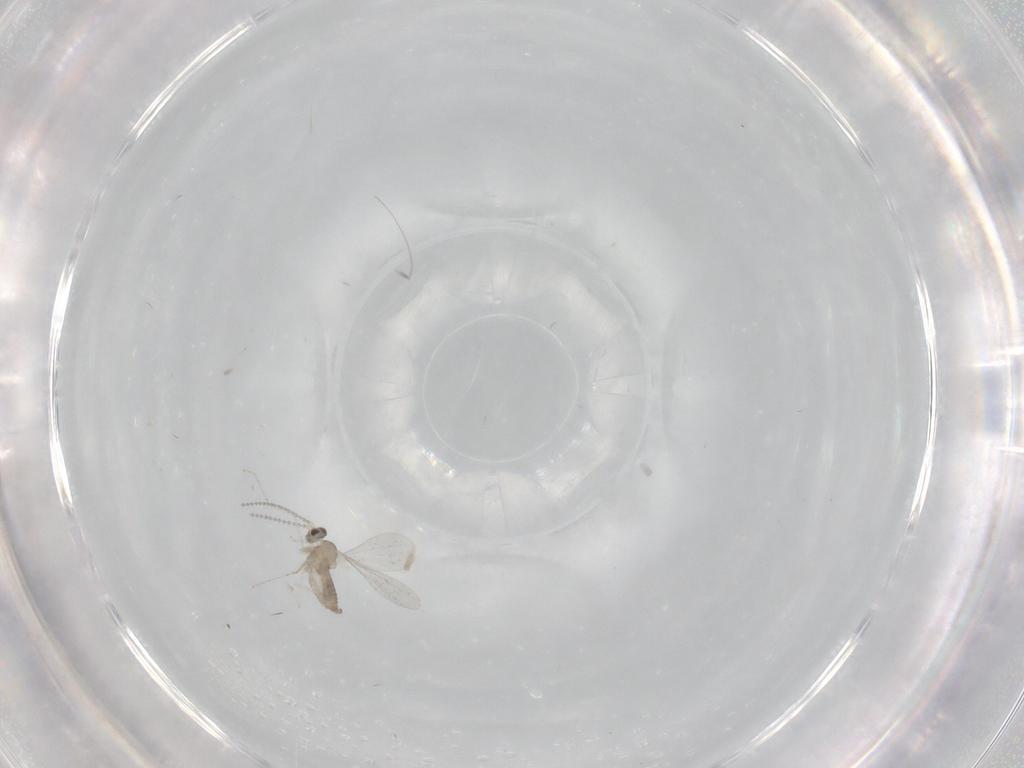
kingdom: Animalia
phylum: Arthropoda
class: Insecta
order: Diptera
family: Cecidomyiidae
